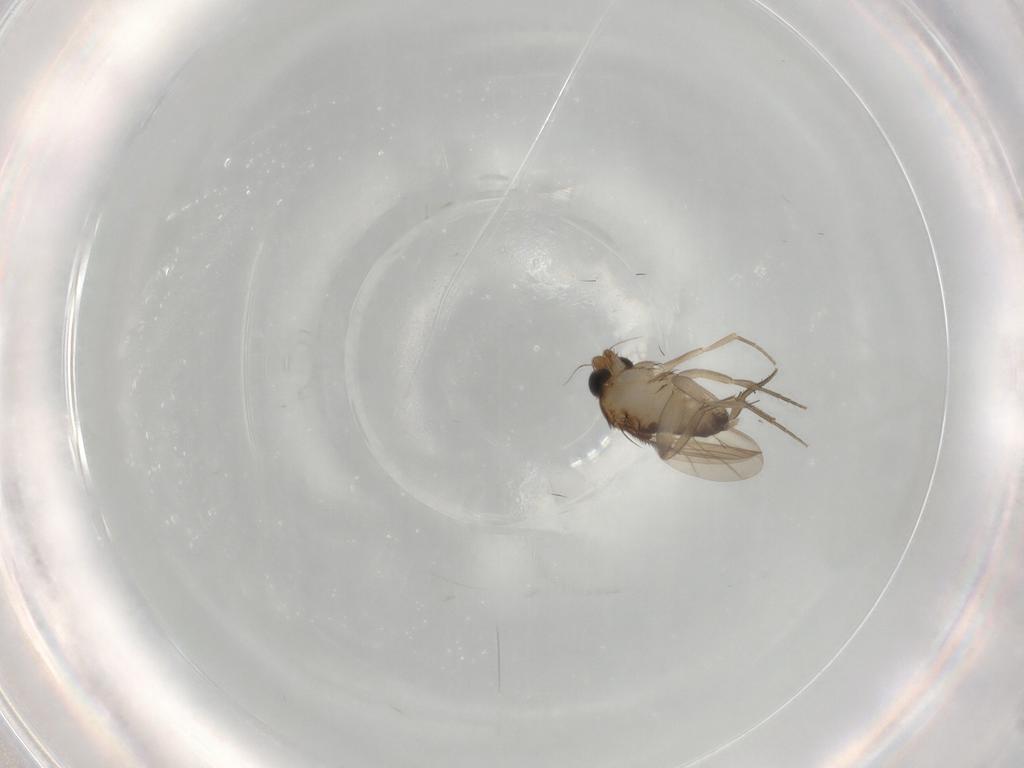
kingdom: Animalia
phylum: Arthropoda
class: Insecta
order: Diptera
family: Phoridae
